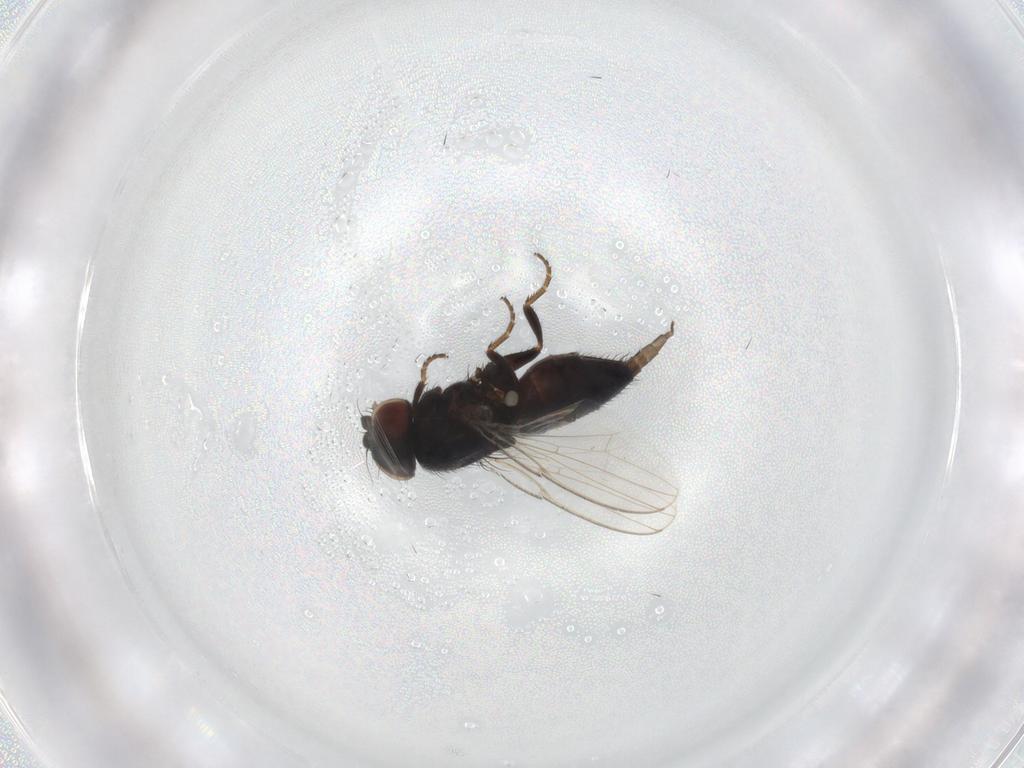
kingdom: Animalia
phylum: Arthropoda
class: Insecta
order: Diptera
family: Milichiidae
